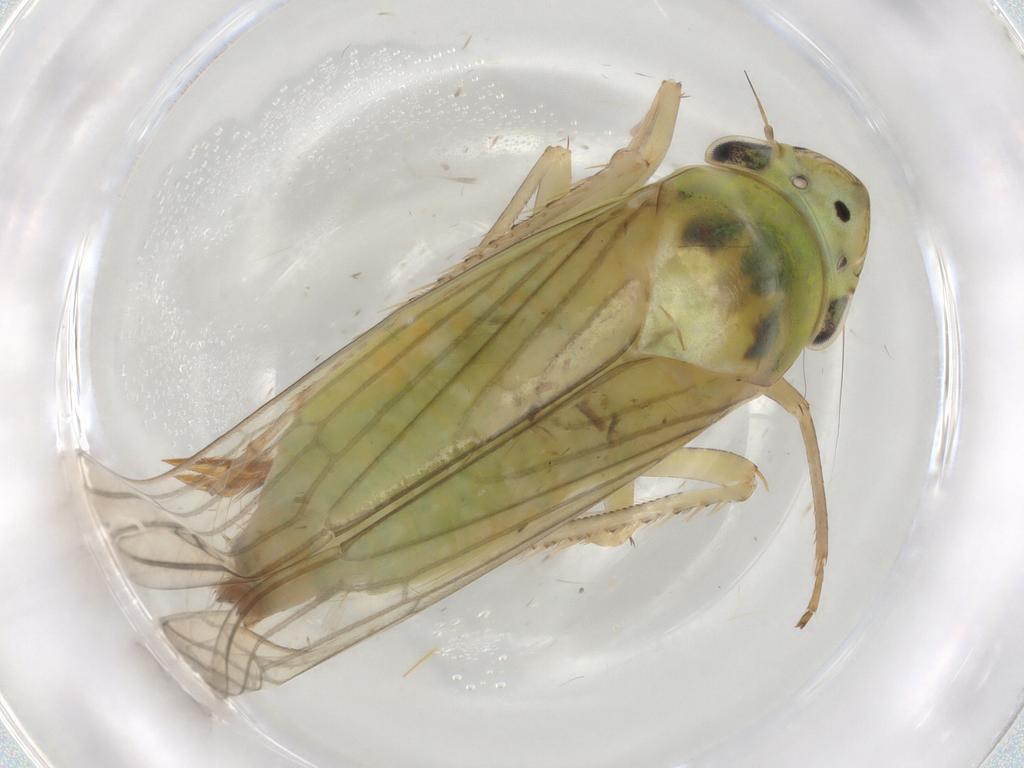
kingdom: Animalia
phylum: Arthropoda
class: Insecta
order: Hemiptera
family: Cicadellidae
